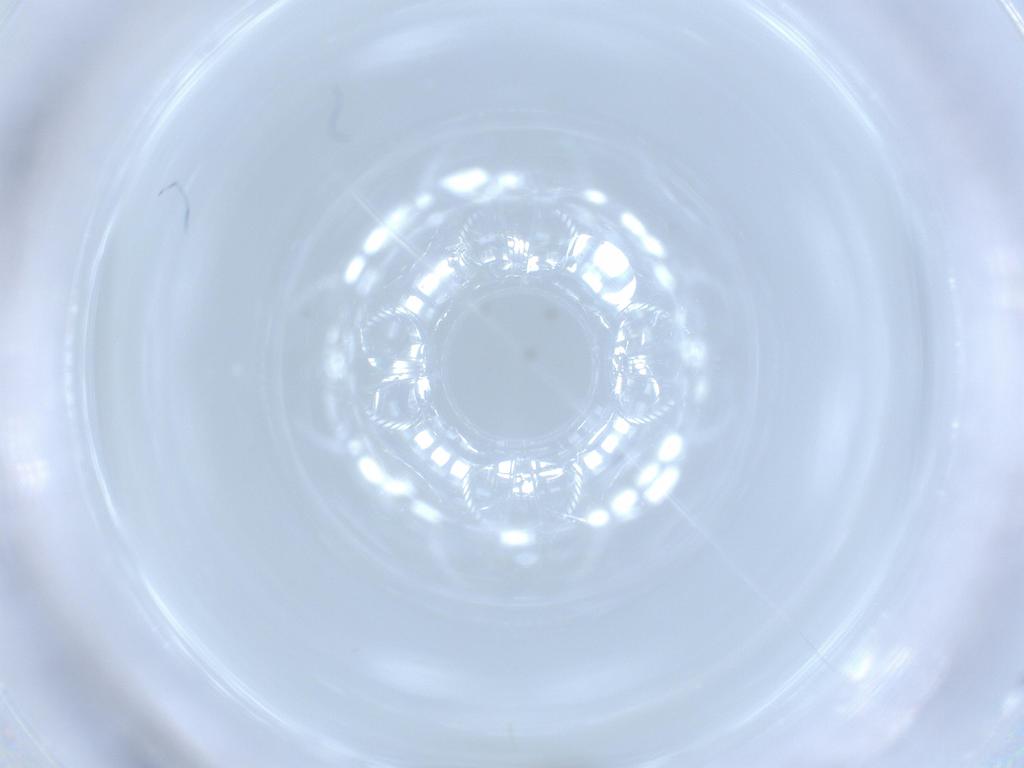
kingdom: Animalia
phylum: Arthropoda
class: Insecta
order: Diptera
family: Cecidomyiidae
